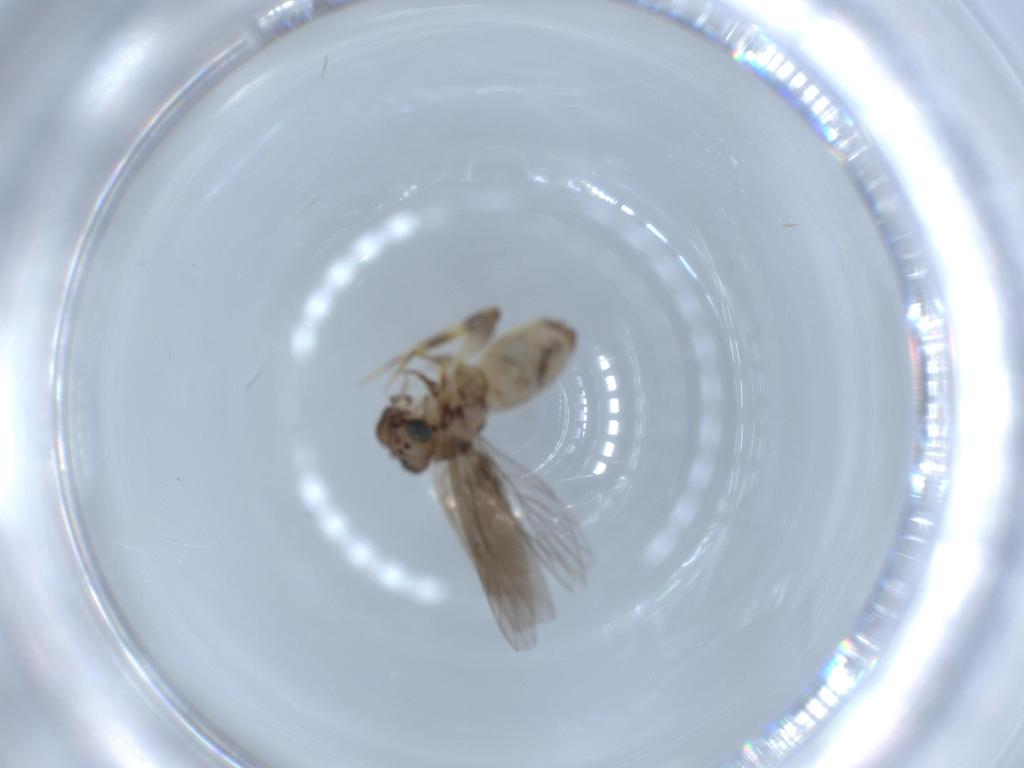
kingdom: Animalia
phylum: Arthropoda
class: Insecta
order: Psocodea
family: Lepidopsocidae
